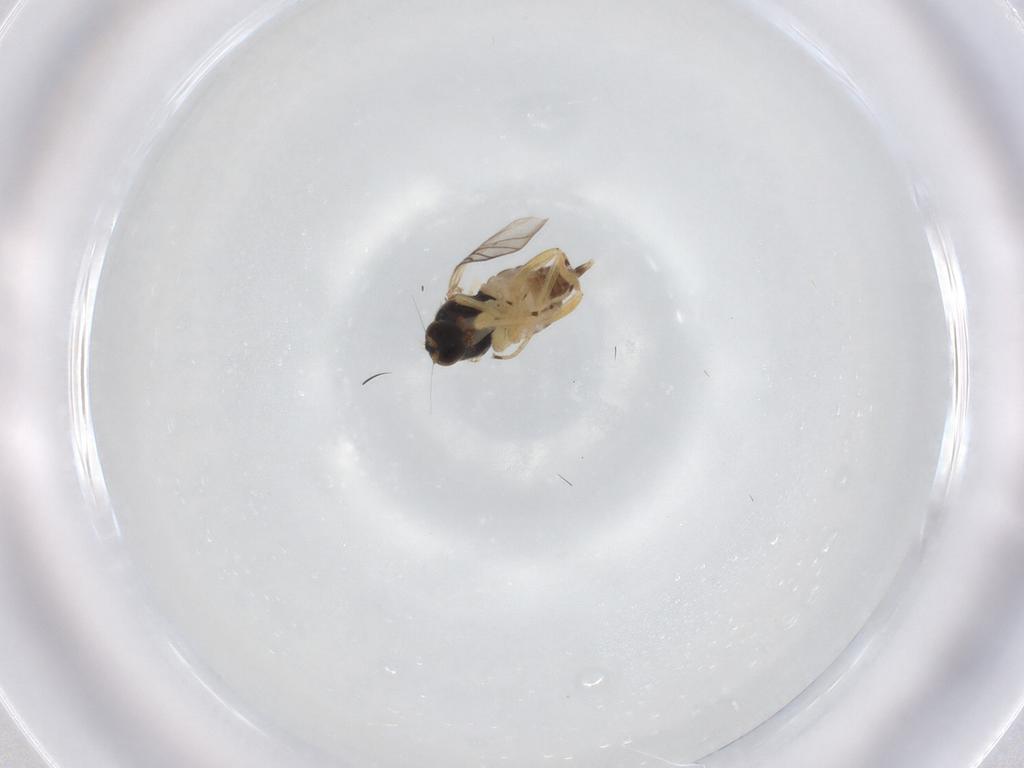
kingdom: Animalia
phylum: Arthropoda
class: Insecta
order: Diptera
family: Hybotidae
